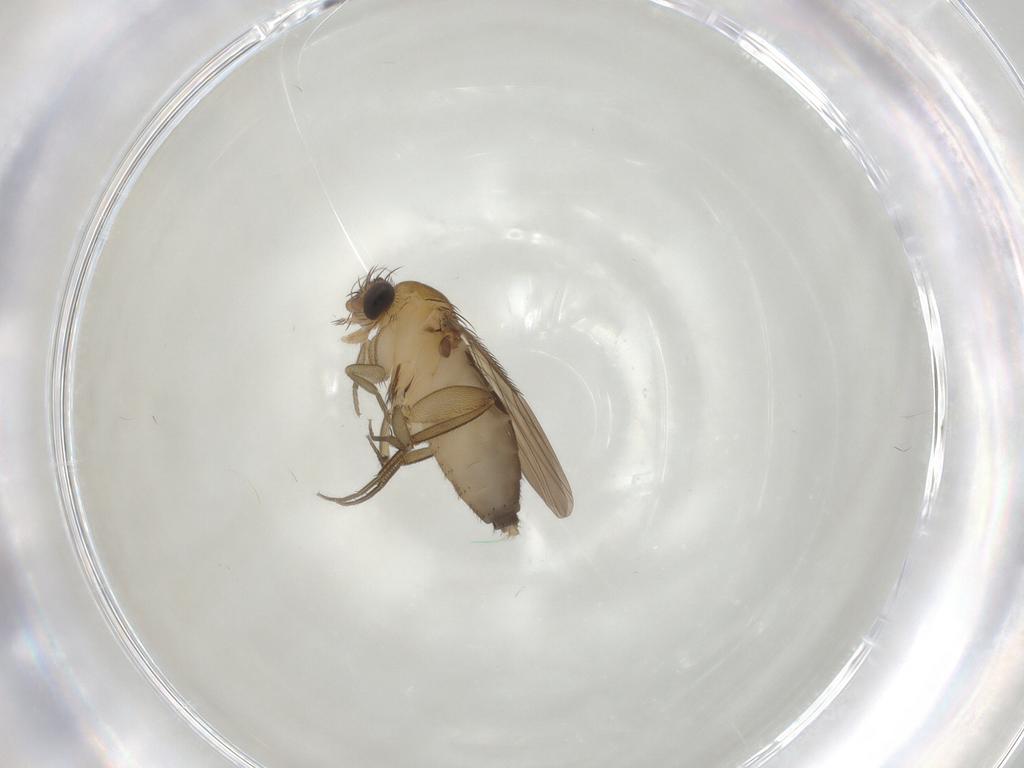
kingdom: Animalia
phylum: Arthropoda
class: Insecta
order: Diptera
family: Phoridae
